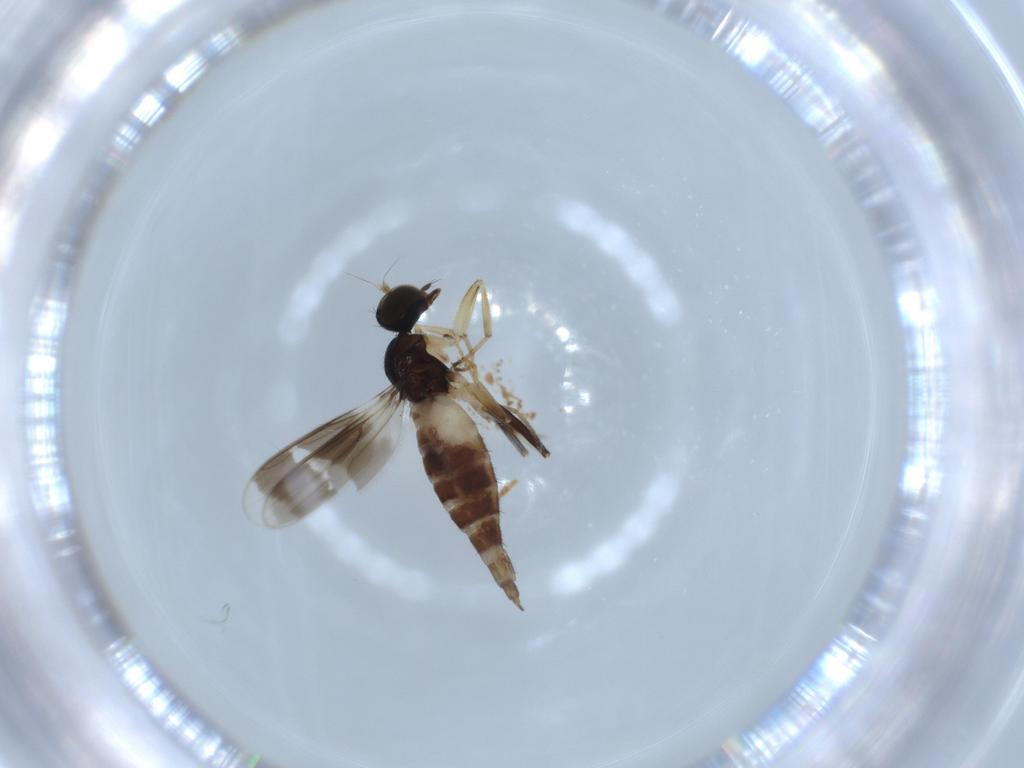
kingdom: Animalia
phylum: Arthropoda
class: Insecta
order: Diptera
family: Hybotidae
